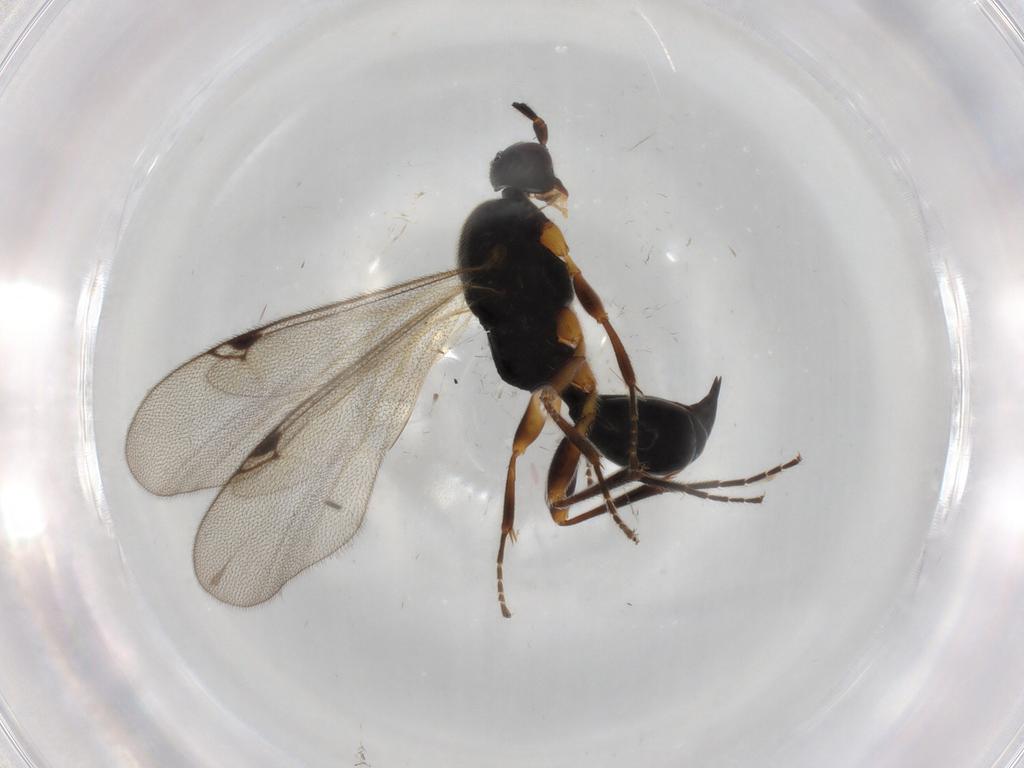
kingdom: Animalia
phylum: Arthropoda
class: Insecta
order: Hymenoptera
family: Proctotrupidae
